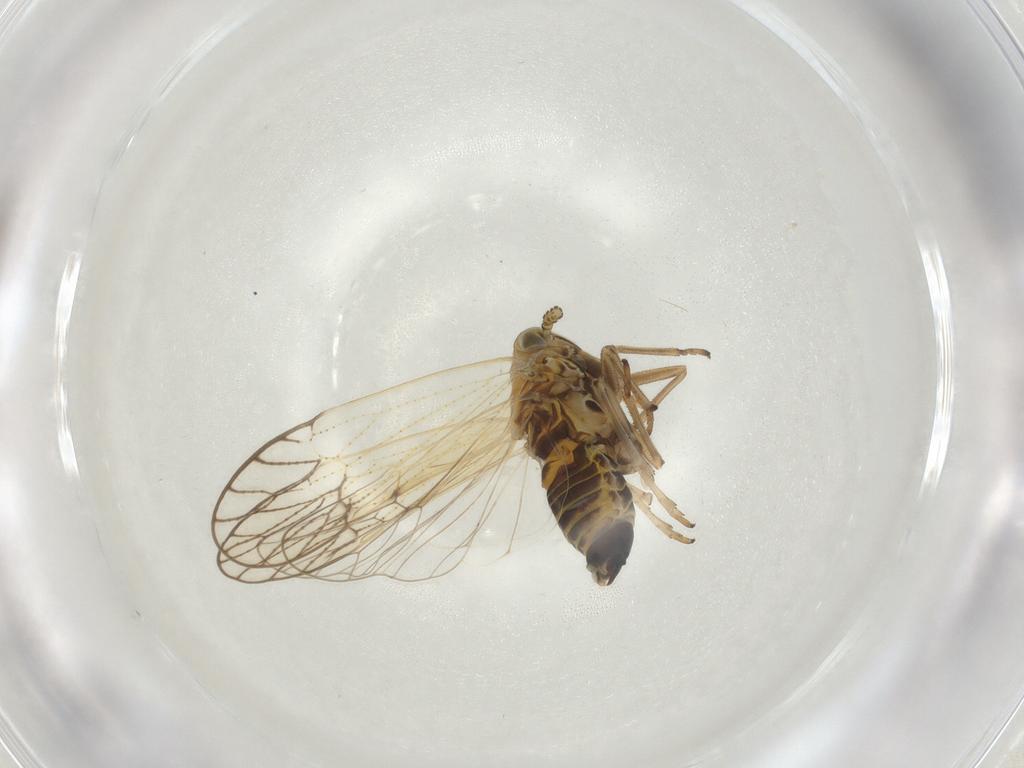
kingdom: Animalia
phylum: Arthropoda
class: Insecta
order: Hemiptera
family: Delphacidae
